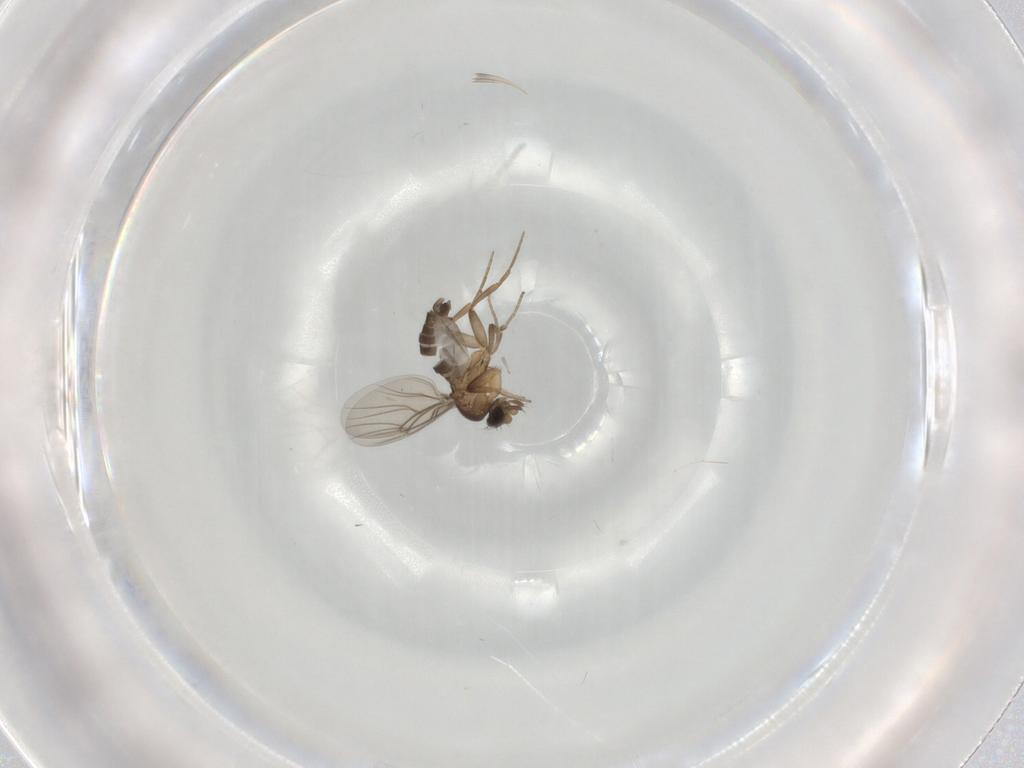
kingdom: Animalia
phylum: Arthropoda
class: Insecta
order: Diptera
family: Phoridae
